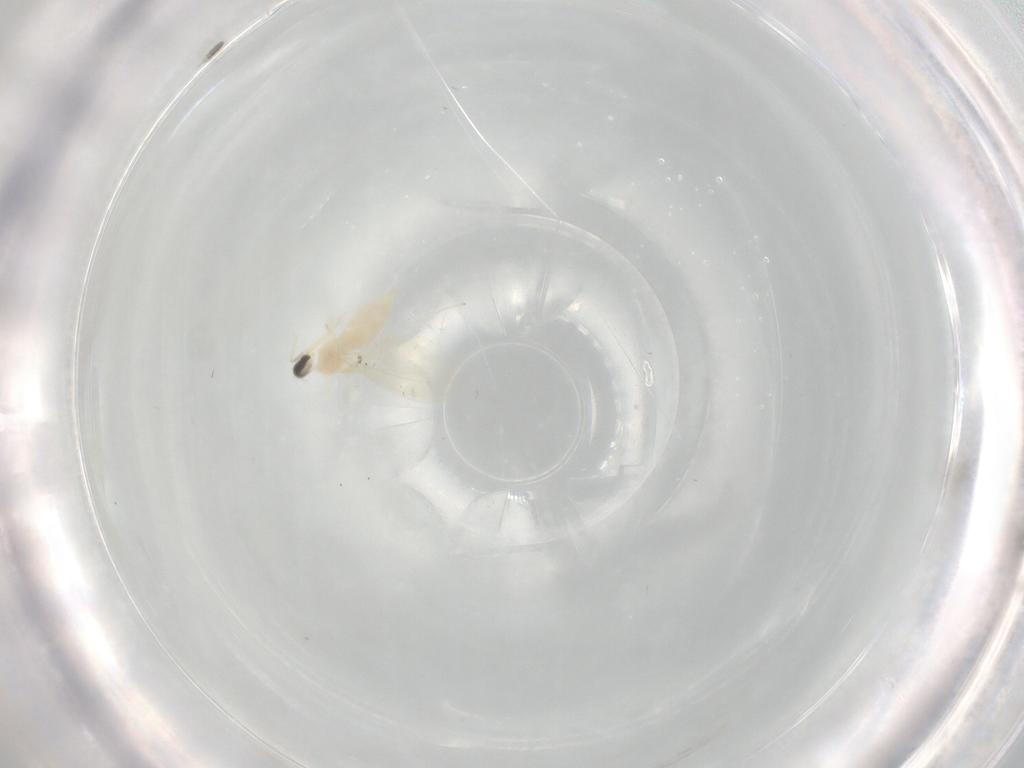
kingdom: Animalia
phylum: Arthropoda
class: Insecta
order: Diptera
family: Cecidomyiidae
